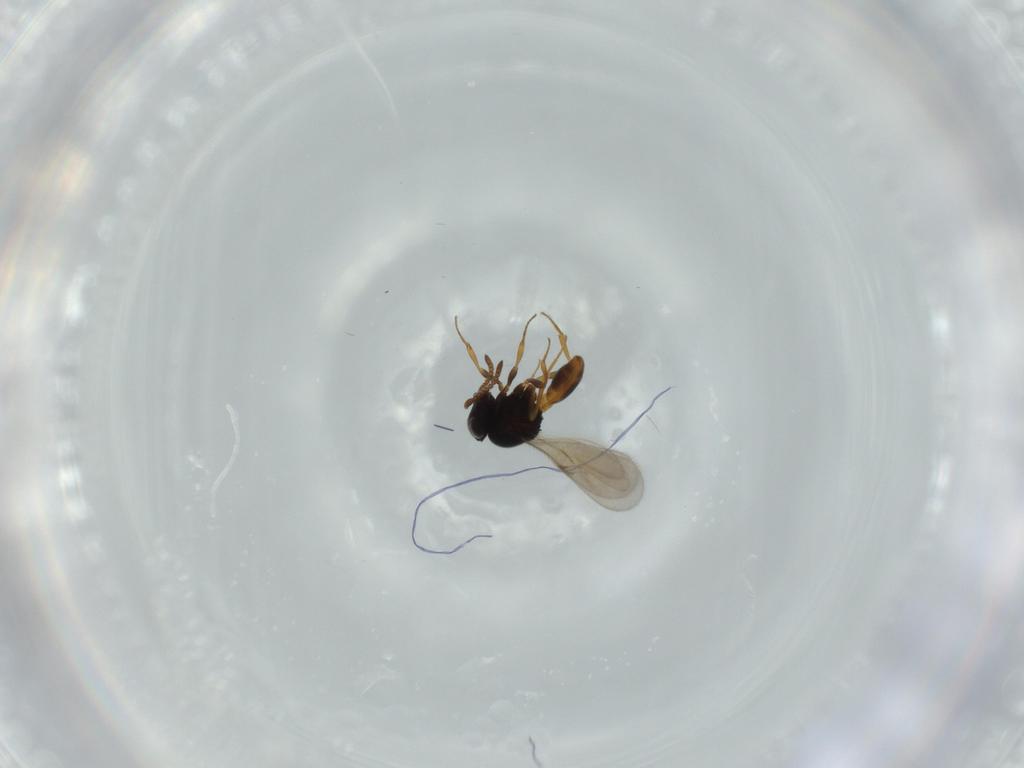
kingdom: Animalia
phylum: Arthropoda
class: Insecta
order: Hymenoptera
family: Scelionidae
